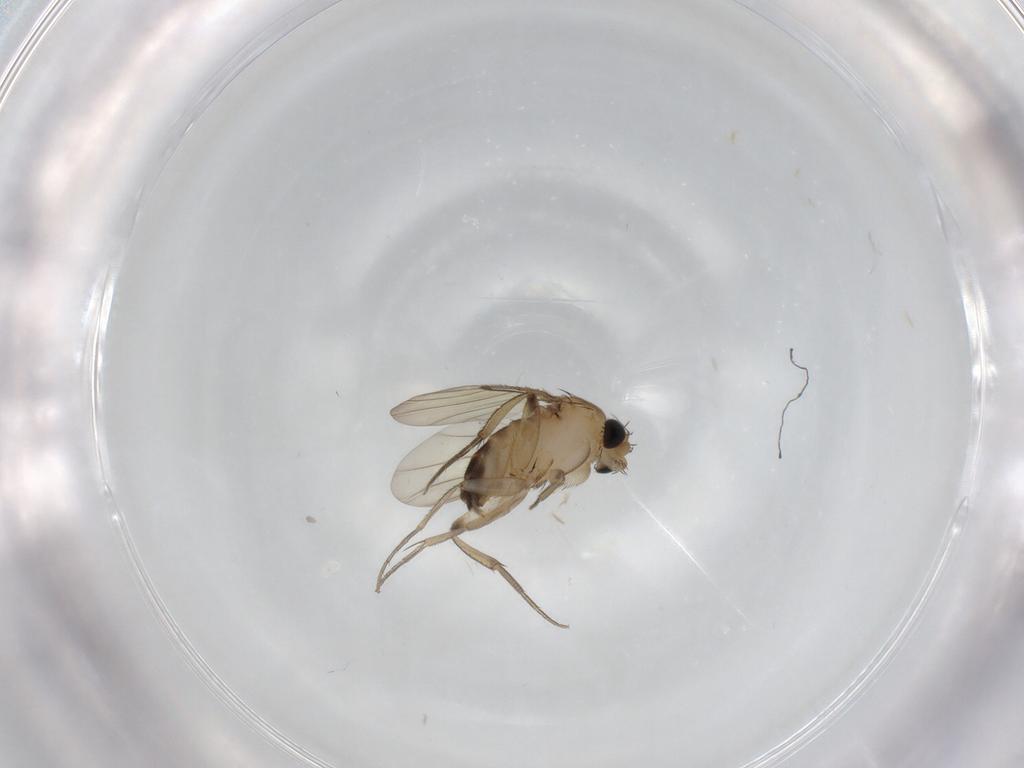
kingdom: Animalia
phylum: Arthropoda
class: Insecta
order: Diptera
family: Phoridae
